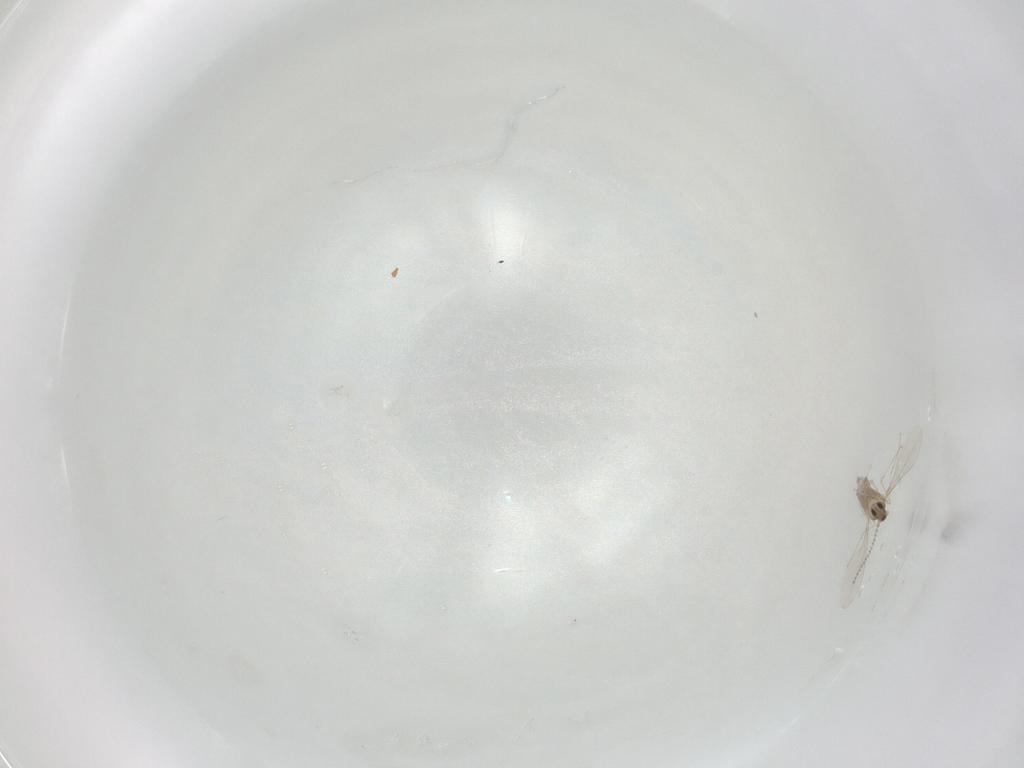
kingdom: Animalia
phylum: Arthropoda
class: Insecta
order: Diptera
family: Cecidomyiidae
